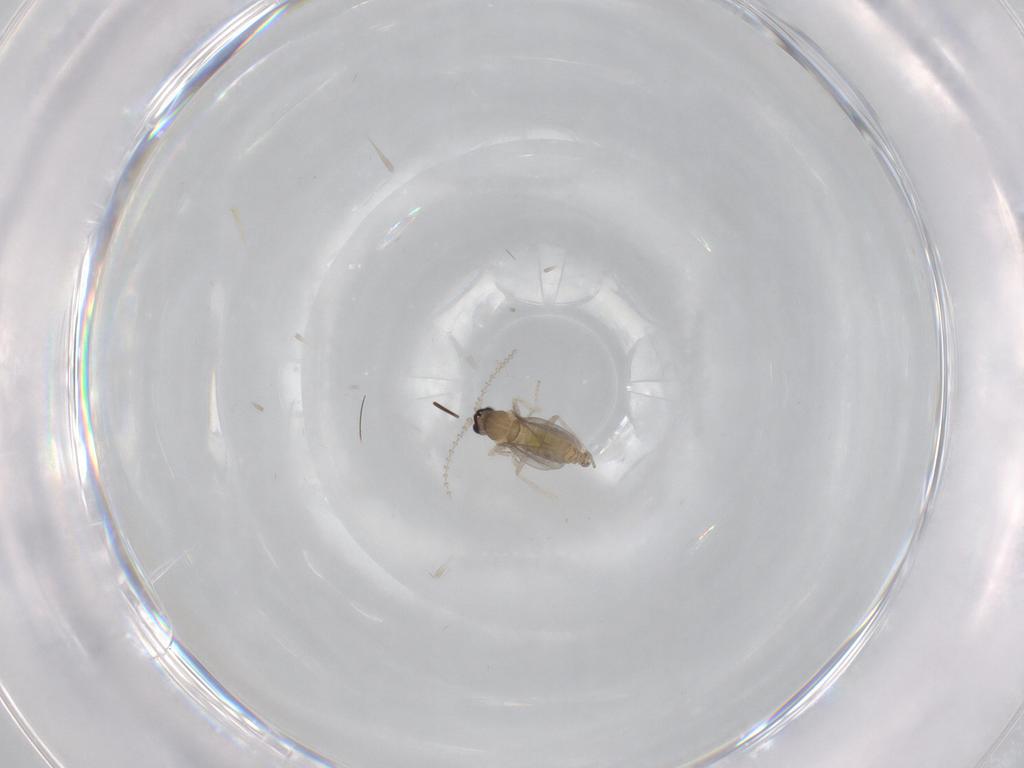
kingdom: Animalia
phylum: Arthropoda
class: Insecta
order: Diptera
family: Cecidomyiidae
